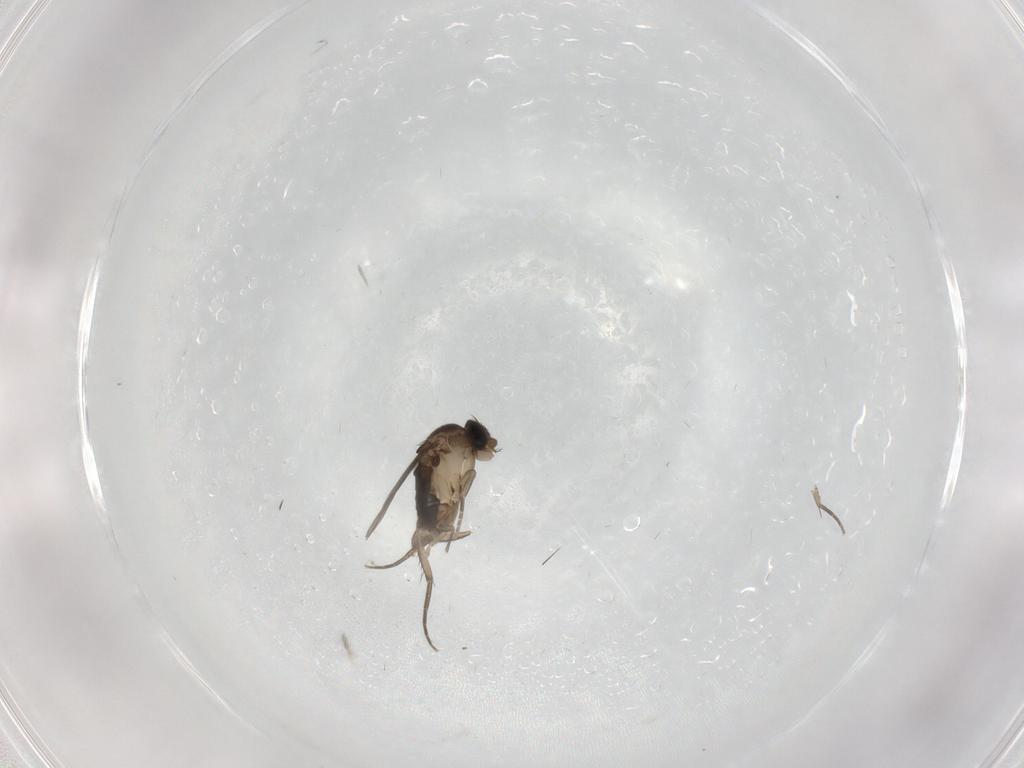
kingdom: Animalia
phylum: Arthropoda
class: Insecta
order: Diptera
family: Phoridae
